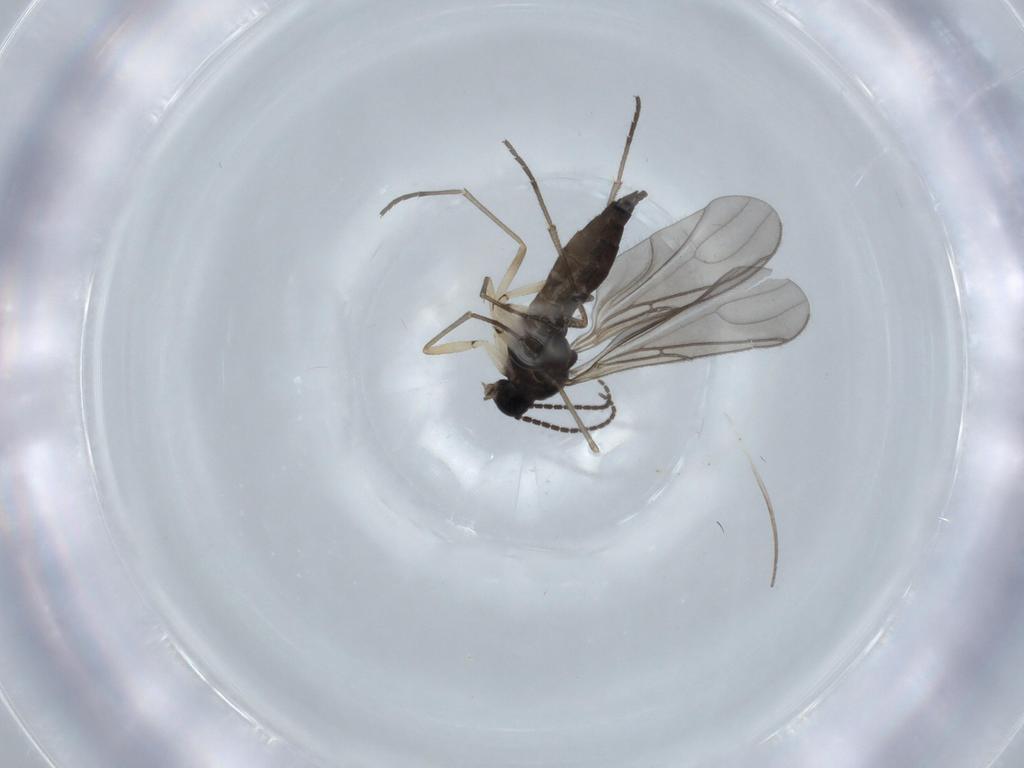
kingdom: Animalia
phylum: Arthropoda
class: Insecta
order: Diptera
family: Sciaridae
